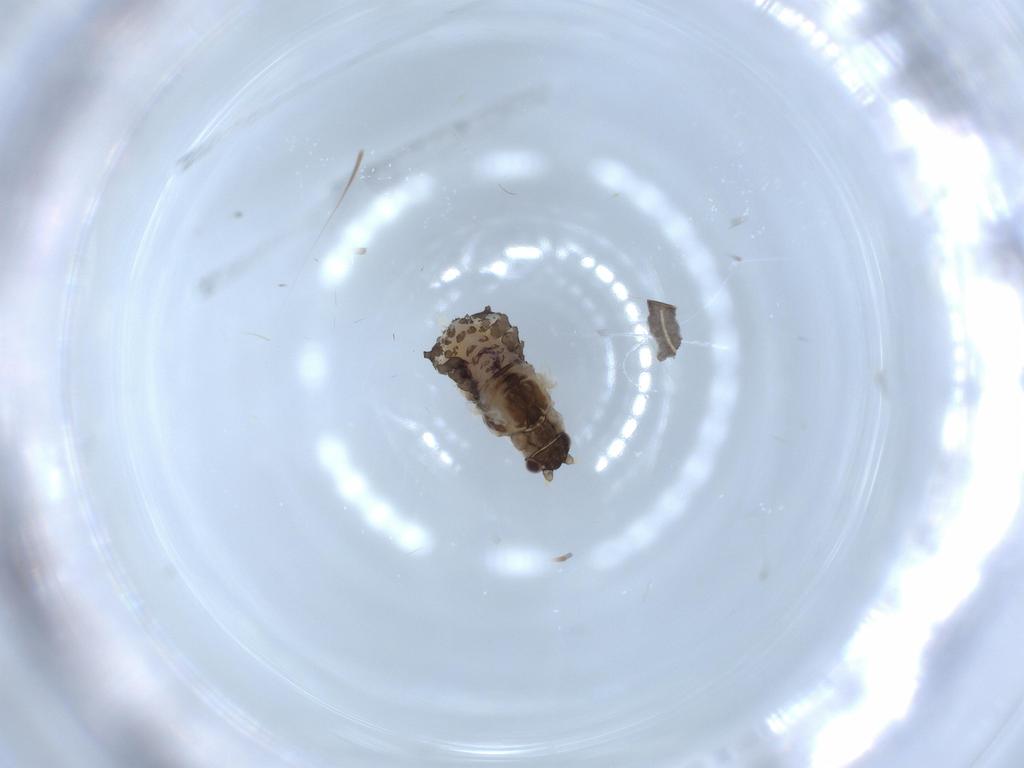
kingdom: Animalia
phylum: Arthropoda
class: Insecta
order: Hemiptera
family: Aphididae
